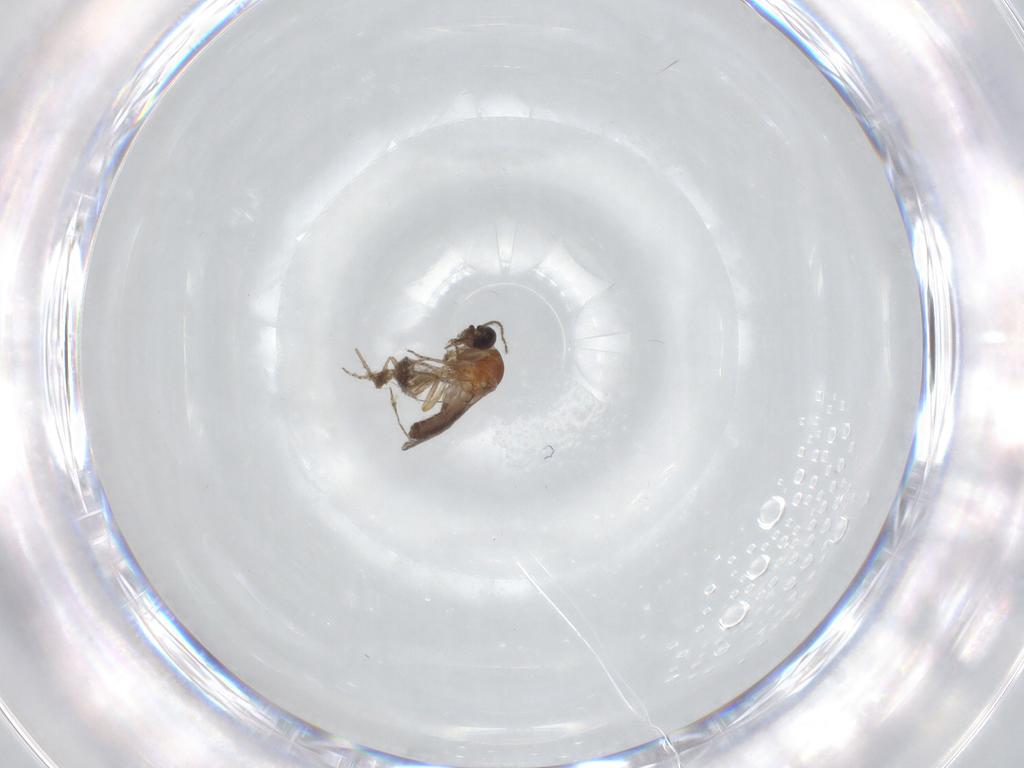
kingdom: Animalia
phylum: Arthropoda
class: Insecta
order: Diptera
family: Cecidomyiidae
